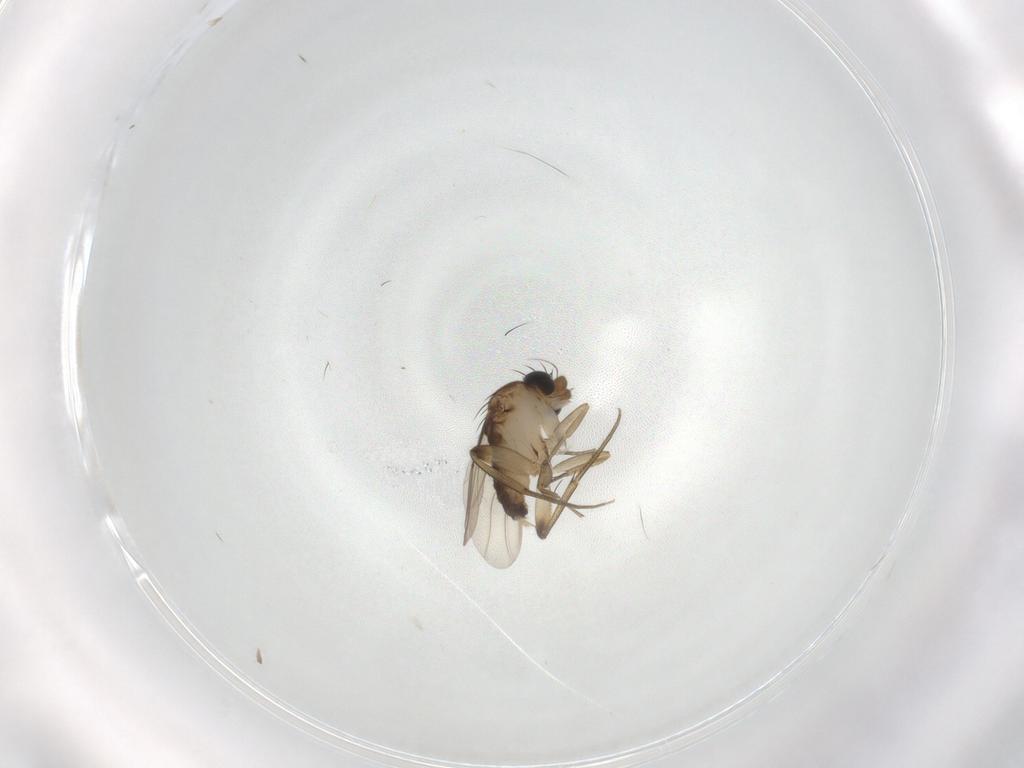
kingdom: Animalia
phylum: Arthropoda
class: Insecta
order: Diptera
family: Phoridae
